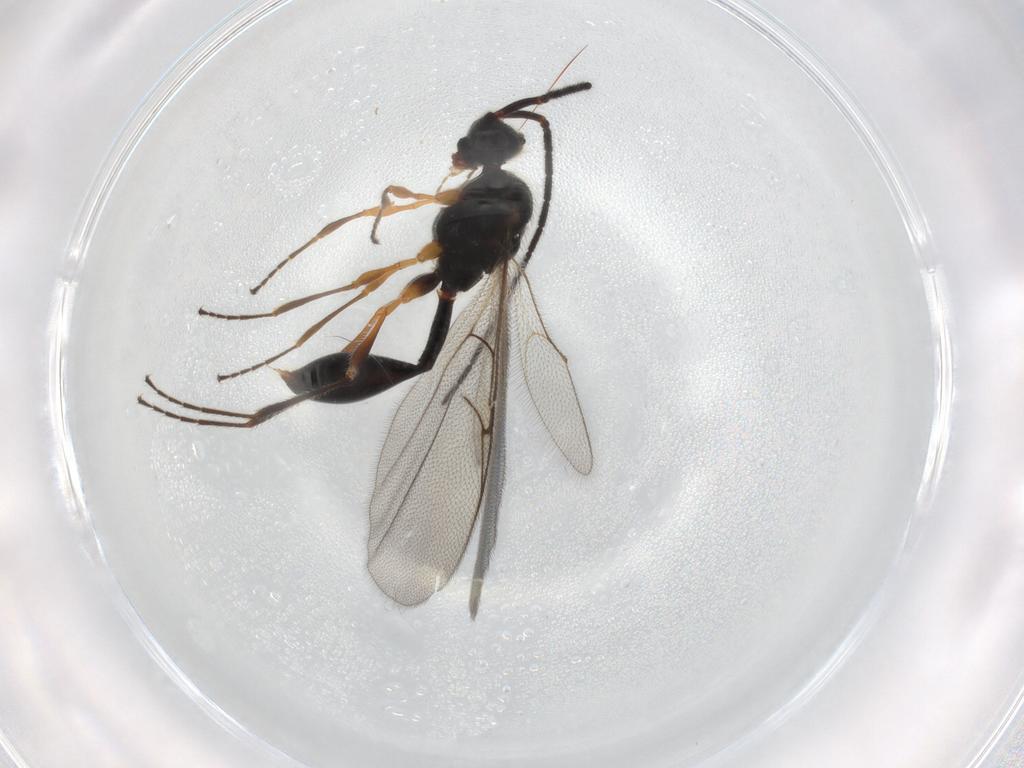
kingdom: Animalia
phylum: Arthropoda
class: Insecta
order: Hymenoptera
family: Diapriidae
